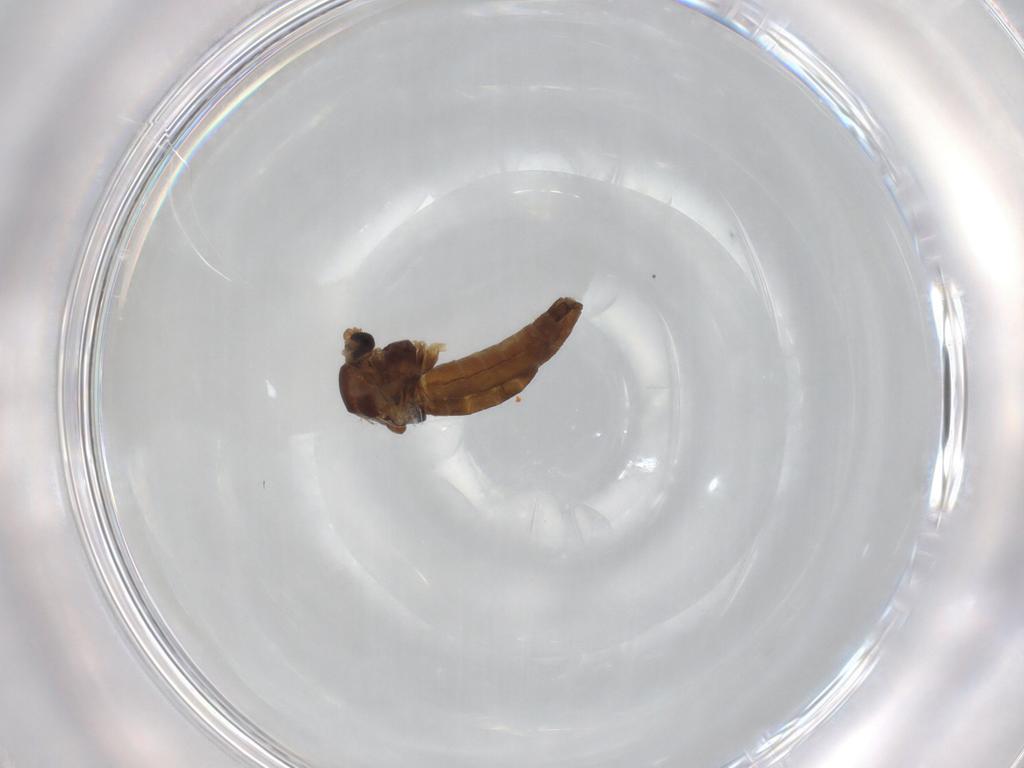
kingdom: Animalia
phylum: Arthropoda
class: Insecta
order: Diptera
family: Chironomidae
